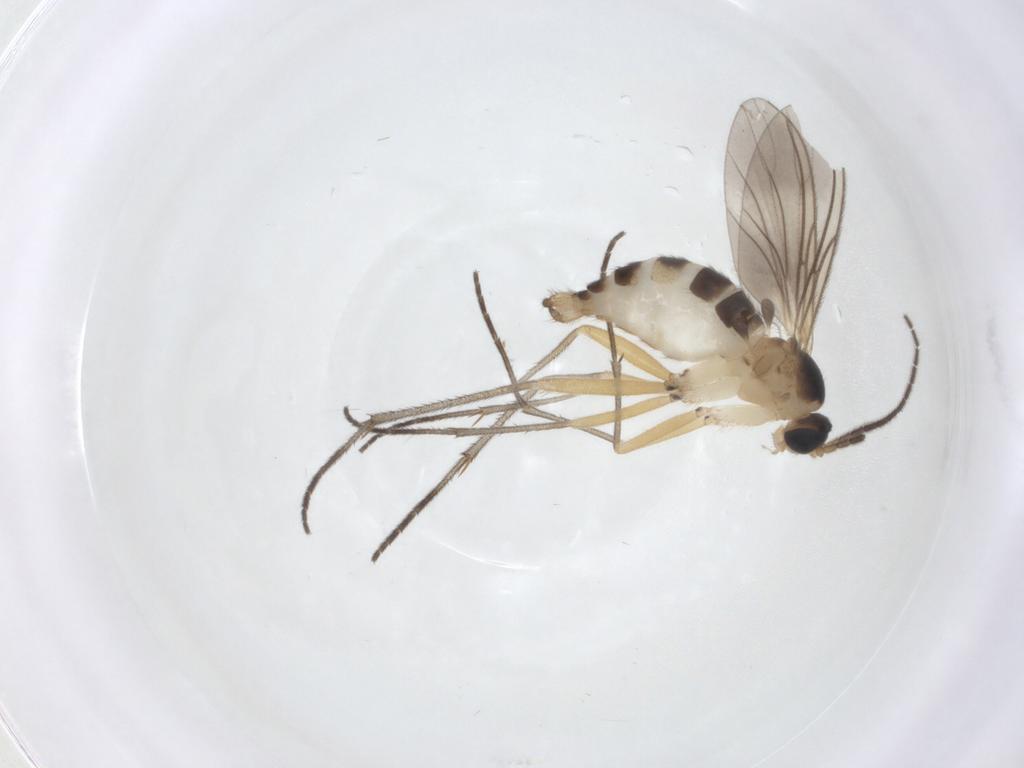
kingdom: Animalia
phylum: Arthropoda
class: Insecta
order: Diptera
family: Sciaridae
